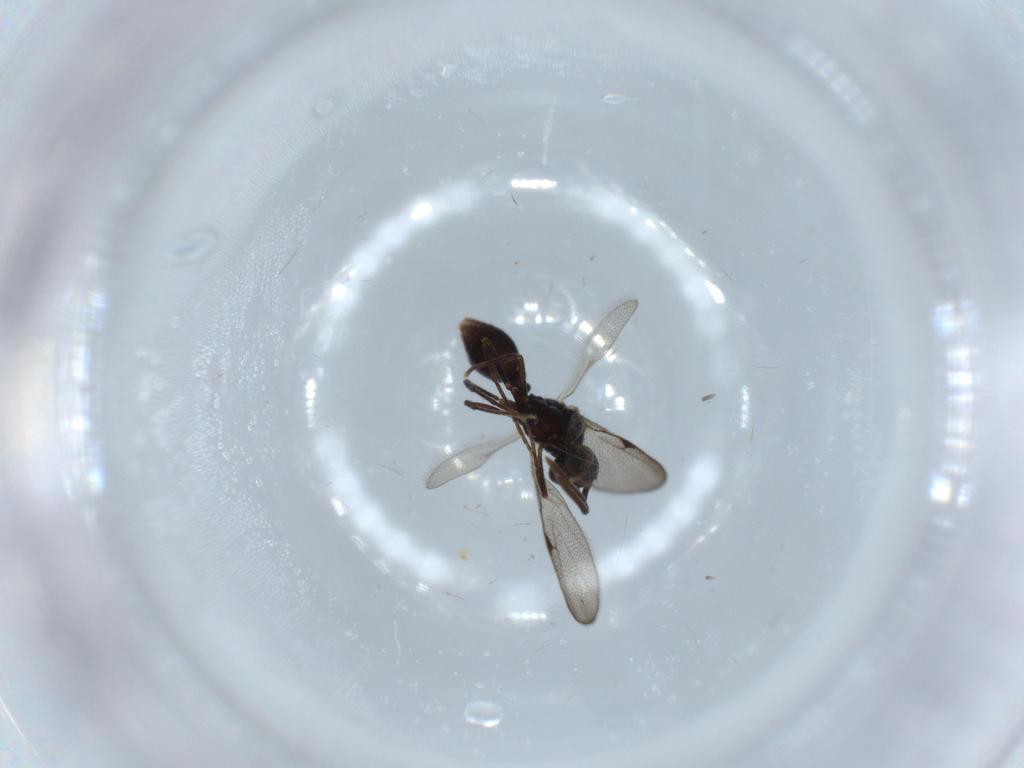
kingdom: Animalia
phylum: Arthropoda
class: Insecta
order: Hymenoptera
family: Formicidae
